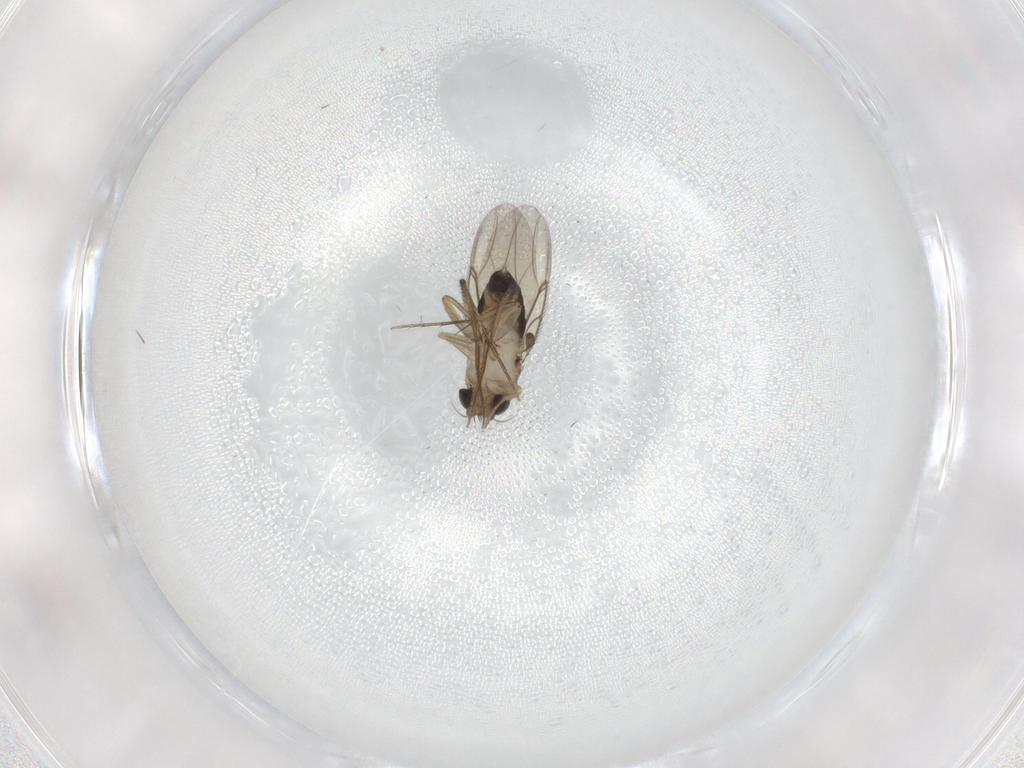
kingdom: Animalia
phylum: Arthropoda
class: Insecta
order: Diptera
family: Phoridae
